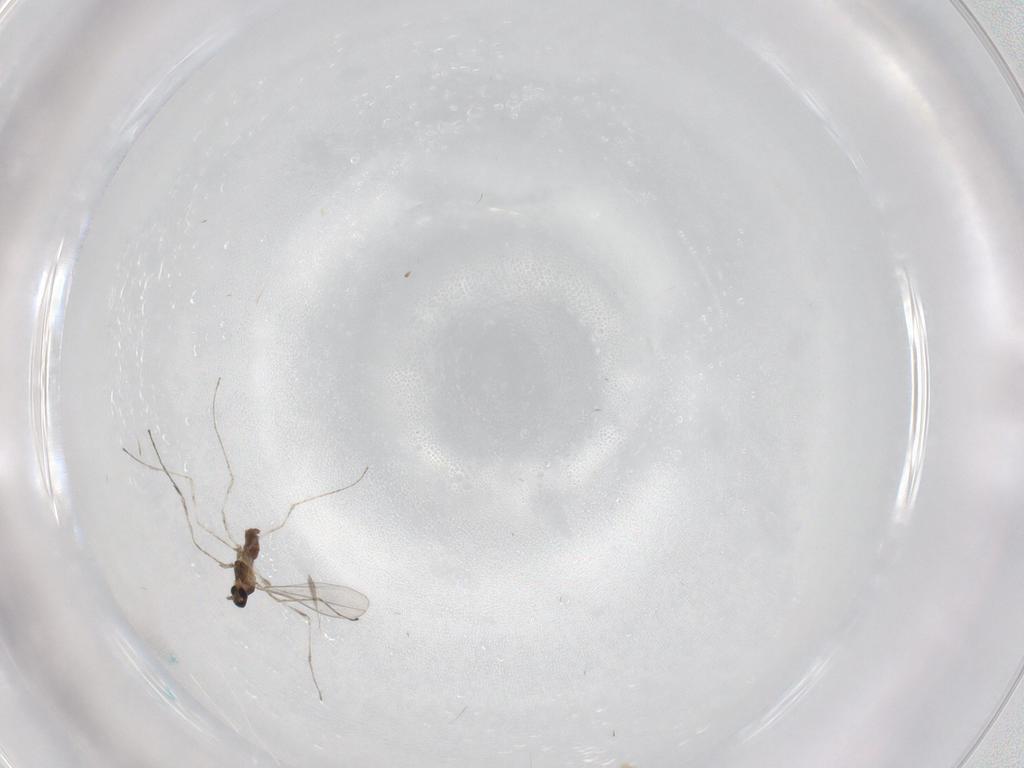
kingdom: Animalia
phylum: Arthropoda
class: Insecta
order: Diptera
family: Cecidomyiidae
